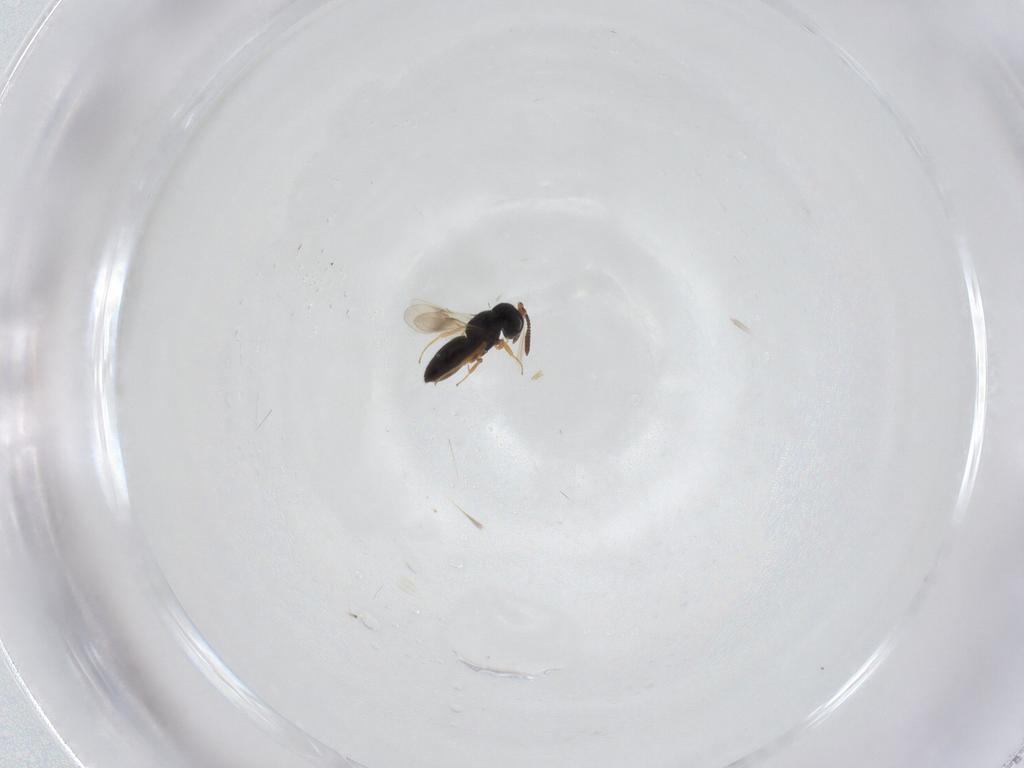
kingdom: Animalia
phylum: Arthropoda
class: Insecta
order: Hymenoptera
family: Scelionidae
